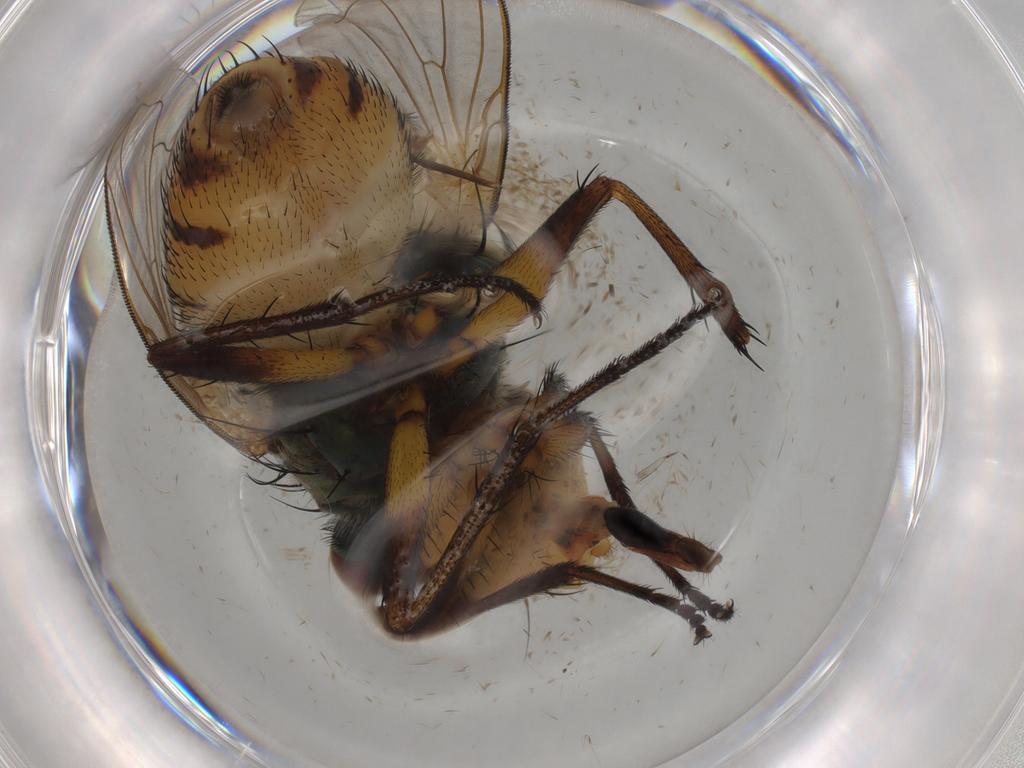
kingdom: Animalia
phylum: Arthropoda
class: Insecta
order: Diptera
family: Calliphoridae
